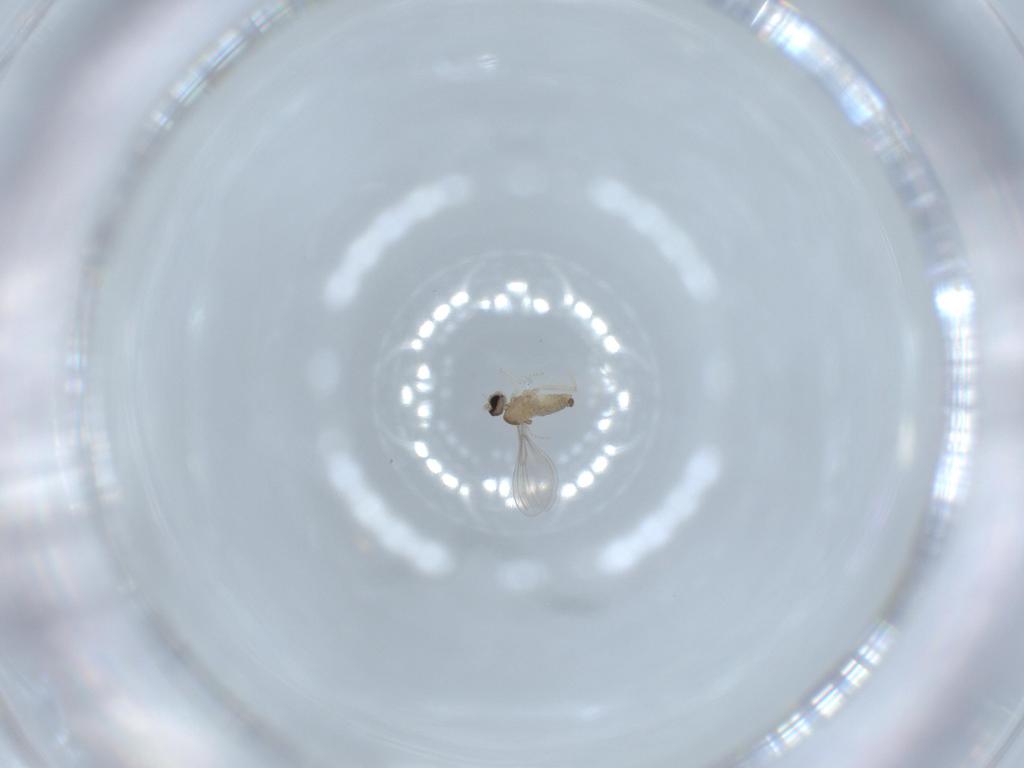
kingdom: Animalia
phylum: Arthropoda
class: Insecta
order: Diptera
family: Cecidomyiidae
